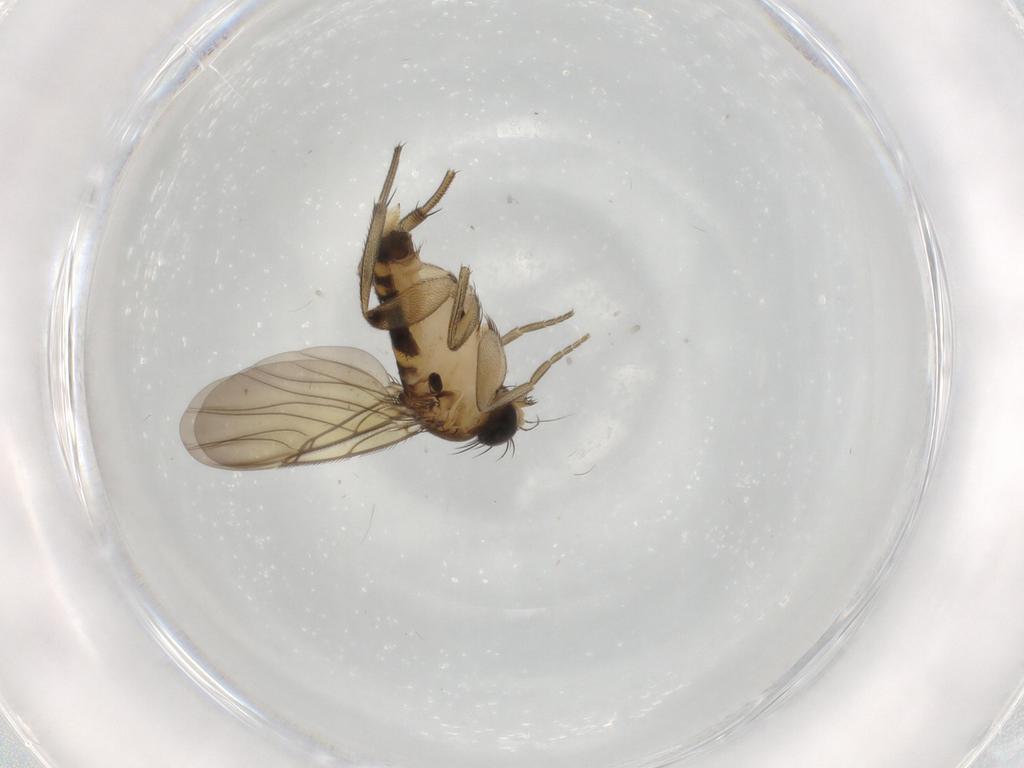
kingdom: Animalia
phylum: Arthropoda
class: Insecta
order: Diptera
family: Phoridae
